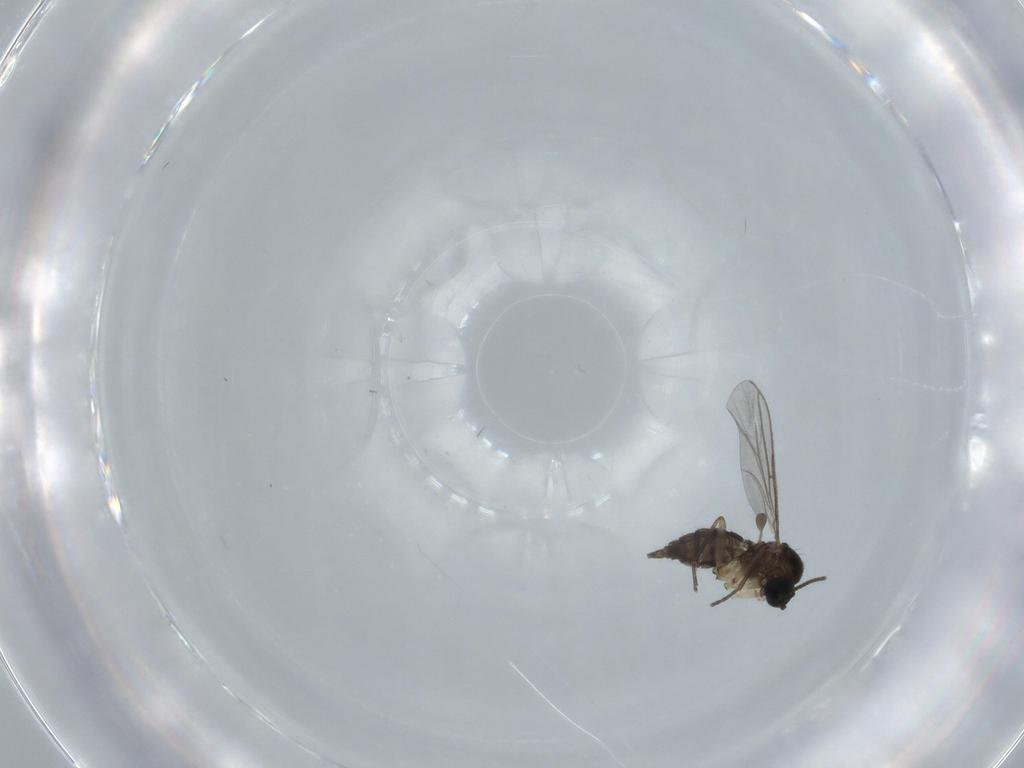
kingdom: Animalia
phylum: Arthropoda
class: Insecta
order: Diptera
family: Sciaridae
